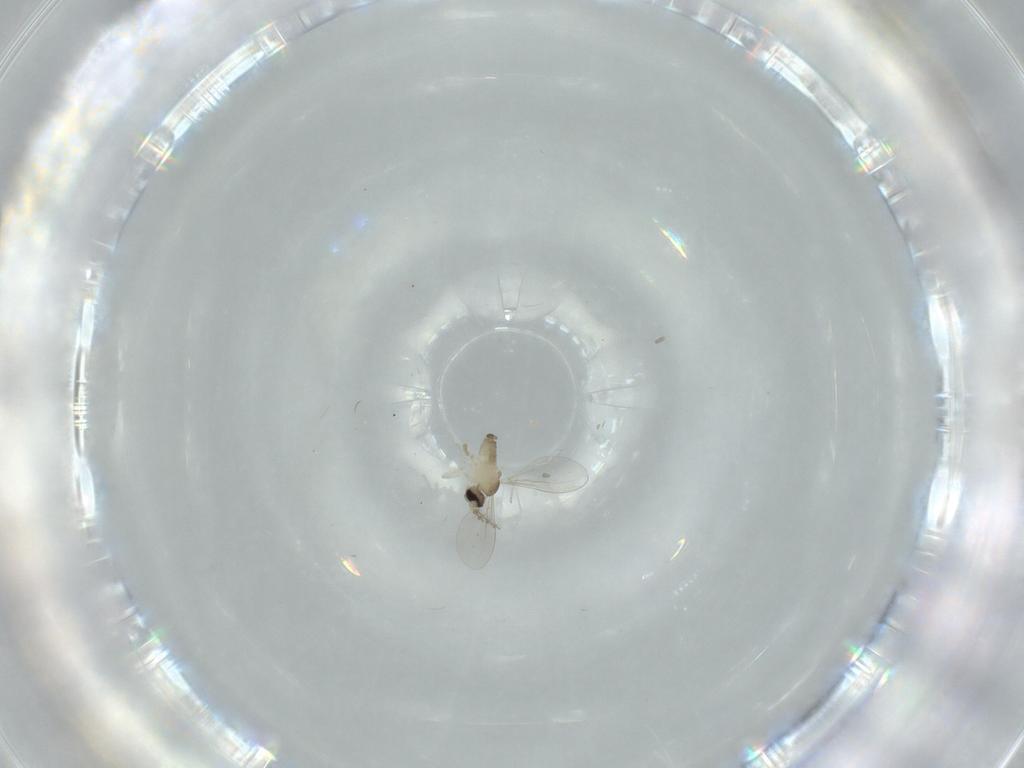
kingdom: Animalia
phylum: Arthropoda
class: Insecta
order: Diptera
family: Cecidomyiidae
